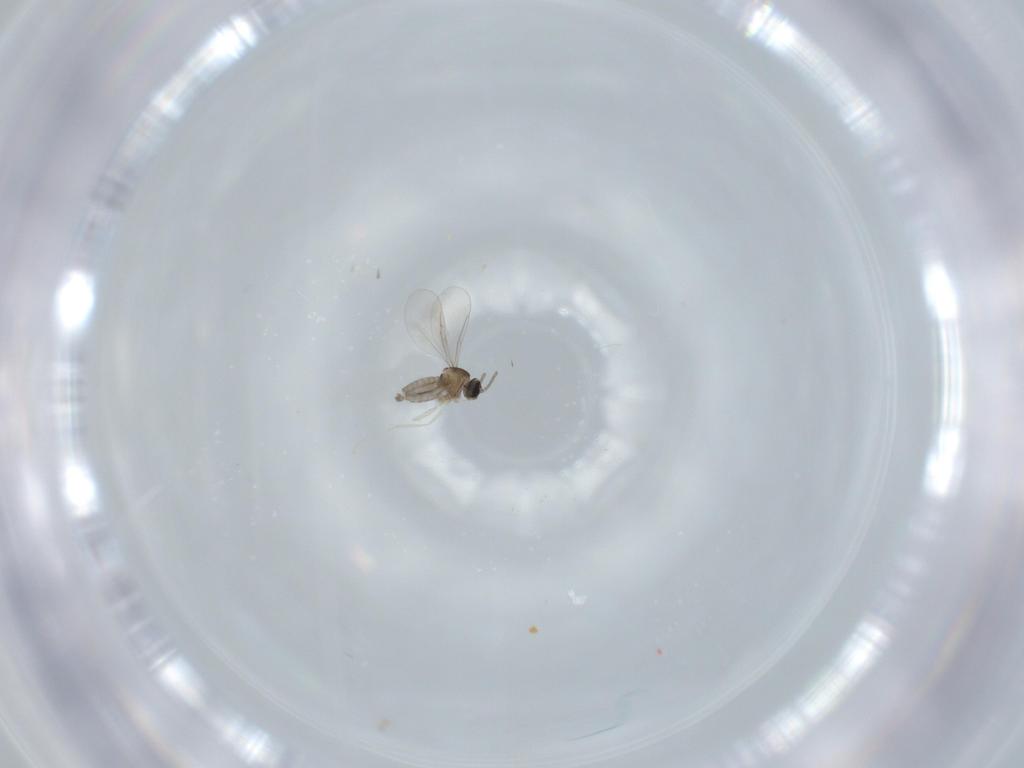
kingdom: Animalia
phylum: Arthropoda
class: Insecta
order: Diptera
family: Cecidomyiidae
